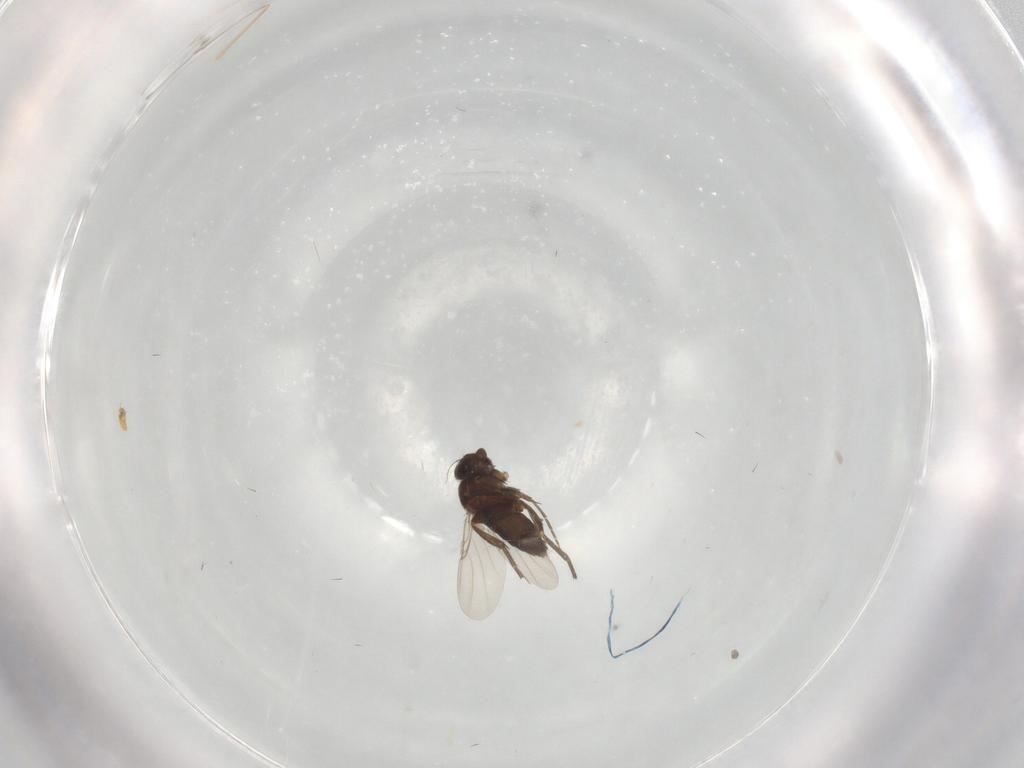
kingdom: Animalia
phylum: Arthropoda
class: Insecta
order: Diptera
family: Phoridae
